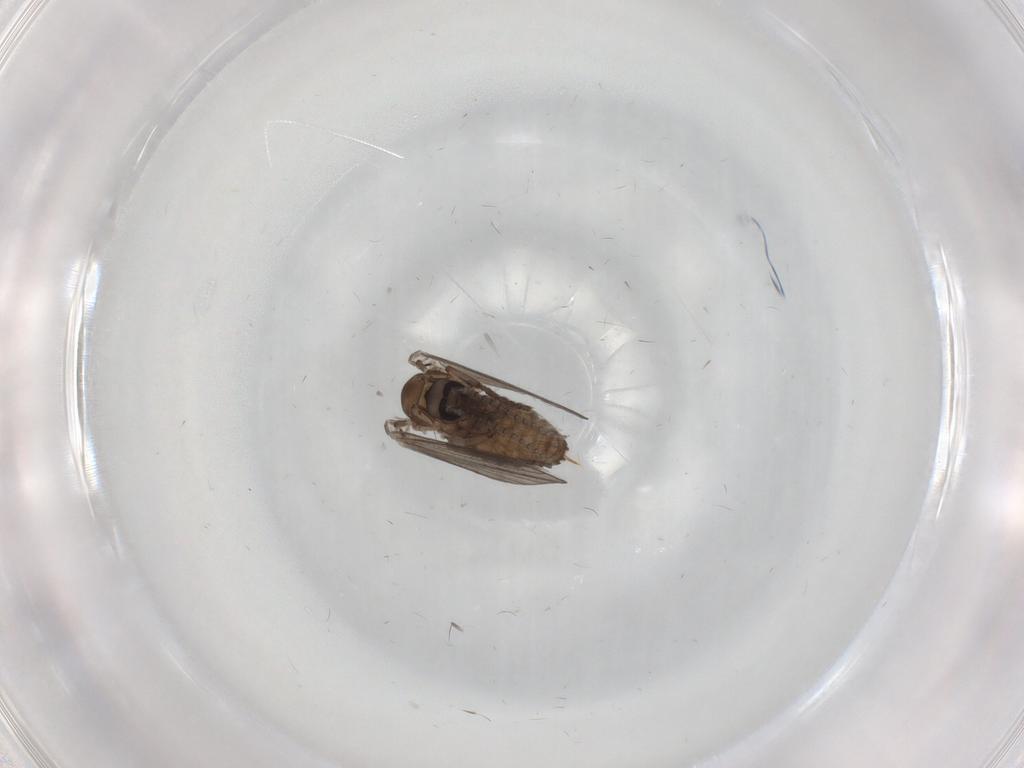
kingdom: Animalia
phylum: Arthropoda
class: Insecta
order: Diptera
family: Psychodidae
